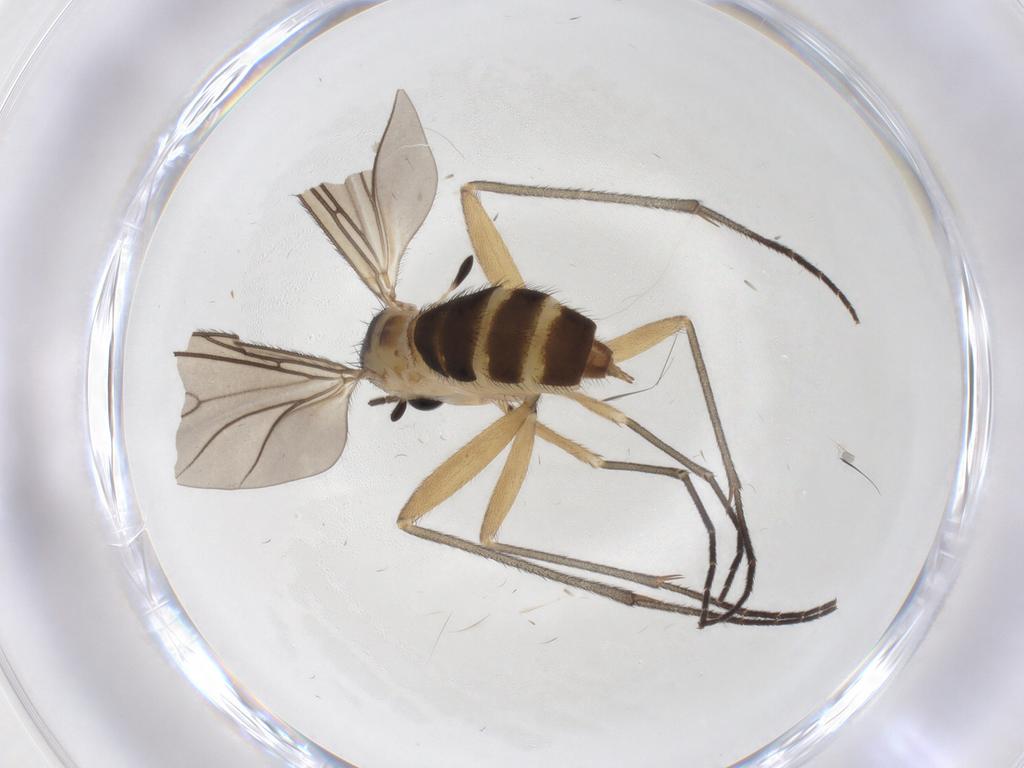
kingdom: Animalia
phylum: Arthropoda
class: Insecta
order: Diptera
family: Sciaridae
